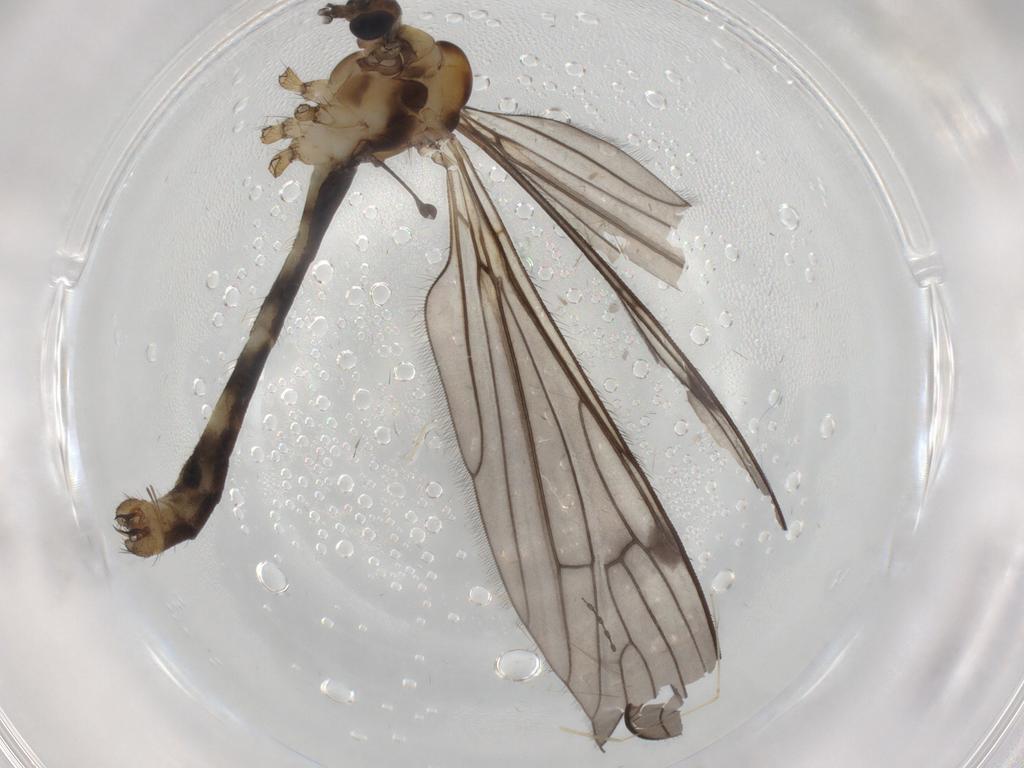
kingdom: Animalia
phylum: Arthropoda
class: Insecta
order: Diptera
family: Limoniidae
